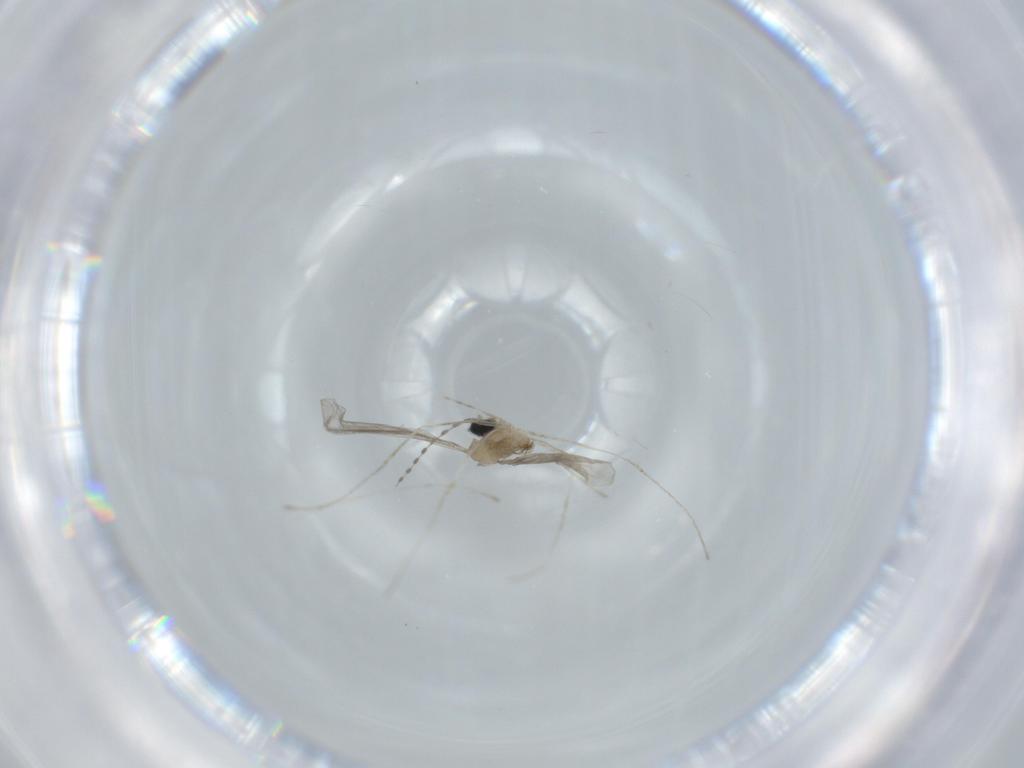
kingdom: Animalia
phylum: Arthropoda
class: Insecta
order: Diptera
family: Cecidomyiidae
